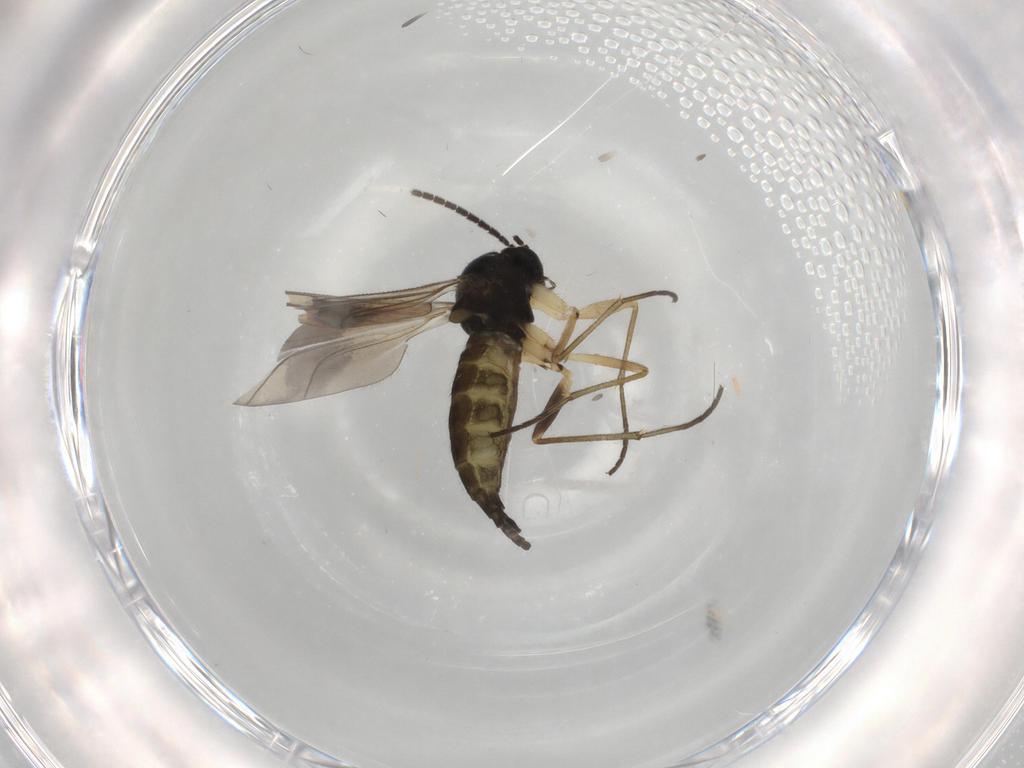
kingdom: Animalia
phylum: Arthropoda
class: Insecta
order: Diptera
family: Sciaridae
